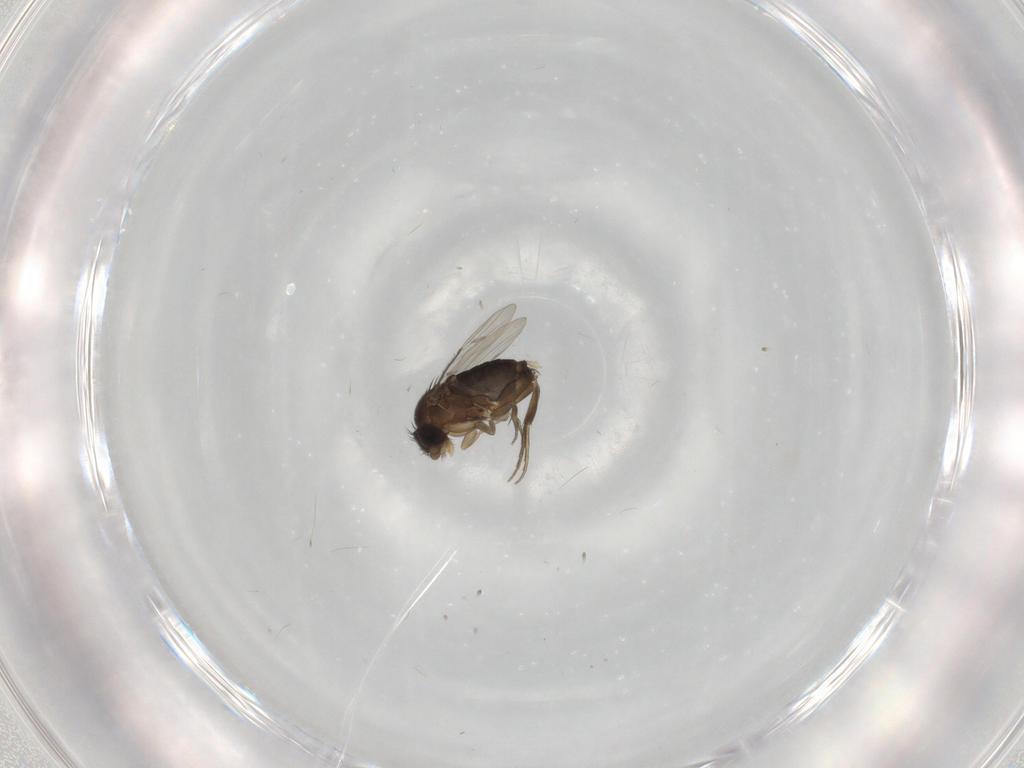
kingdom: Animalia
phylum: Arthropoda
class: Insecta
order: Diptera
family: Phoridae
